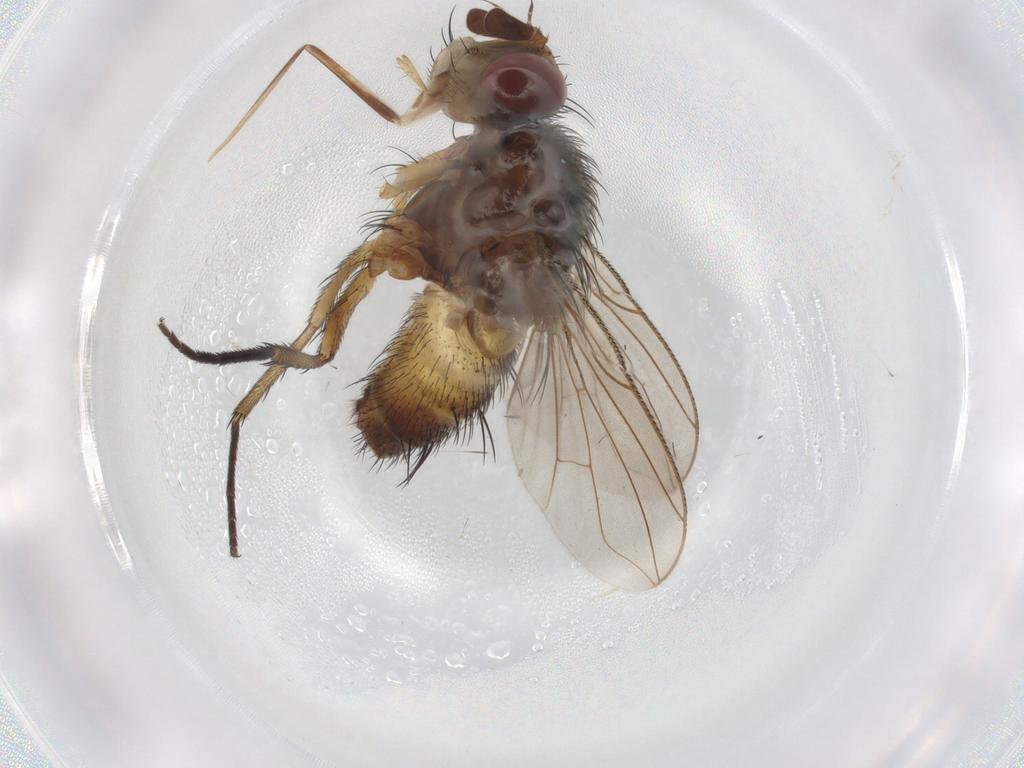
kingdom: Animalia
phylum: Arthropoda
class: Insecta
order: Diptera
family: Tachinidae
